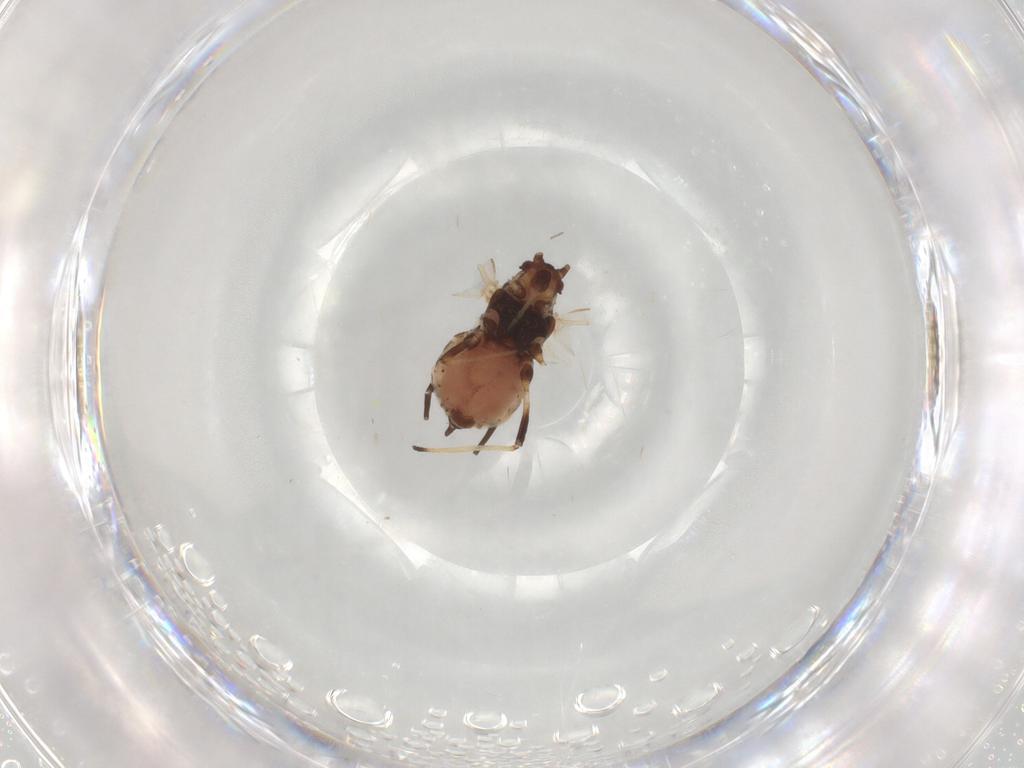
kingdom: Animalia
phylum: Arthropoda
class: Insecta
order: Hemiptera
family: Aphididae
